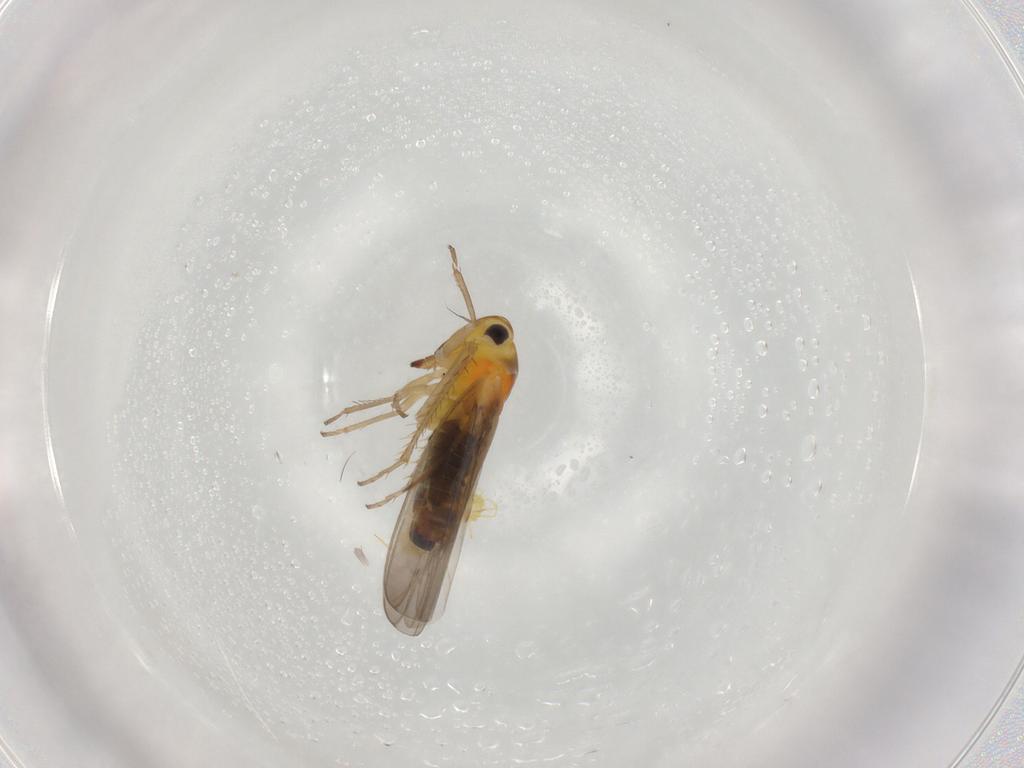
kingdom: Animalia
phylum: Arthropoda
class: Insecta
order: Hemiptera
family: Cicadellidae
